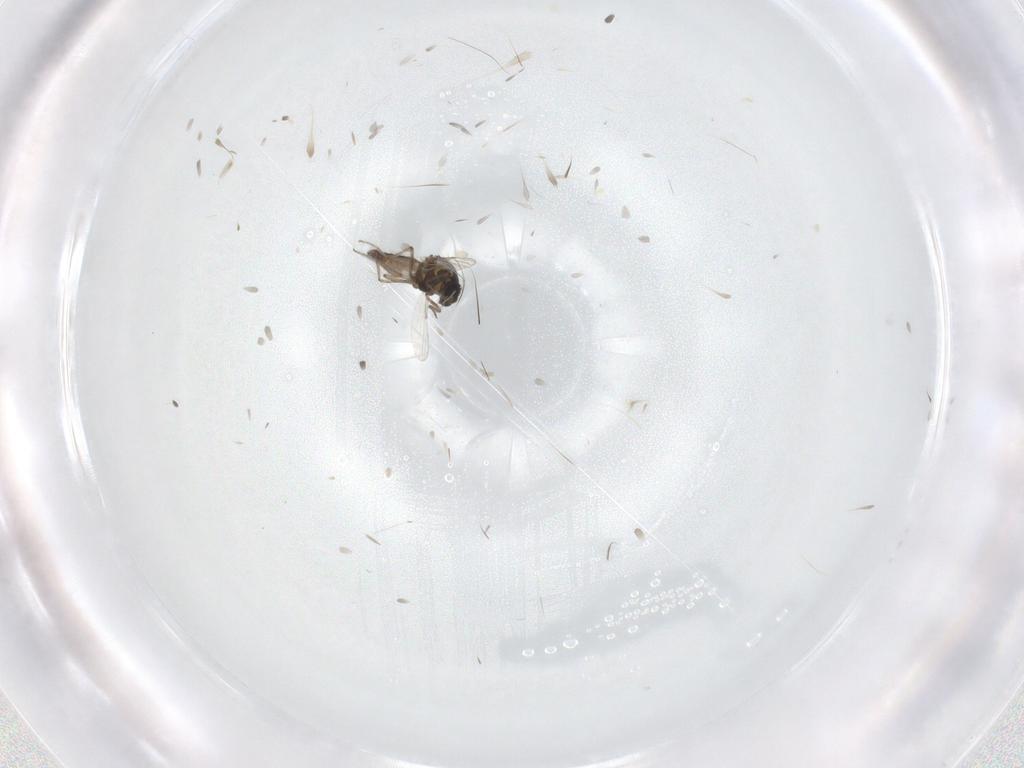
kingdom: Animalia
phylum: Arthropoda
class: Insecta
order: Diptera
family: Ceratopogonidae
